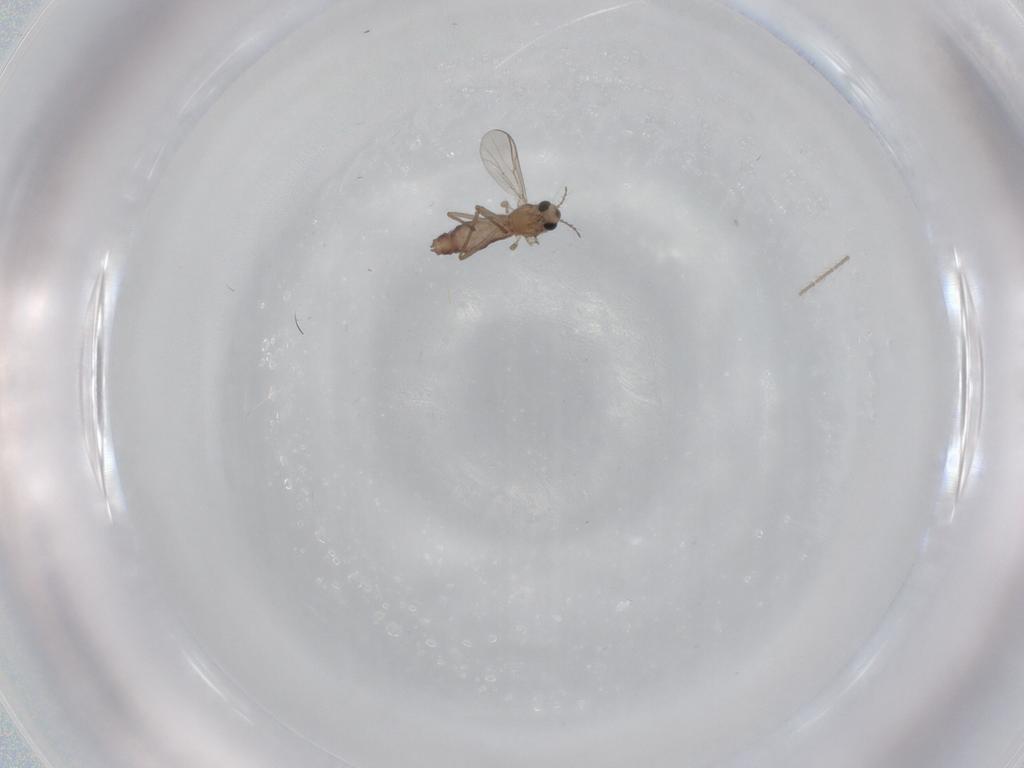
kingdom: Animalia
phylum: Arthropoda
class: Insecta
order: Diptera
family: Chironomidae
